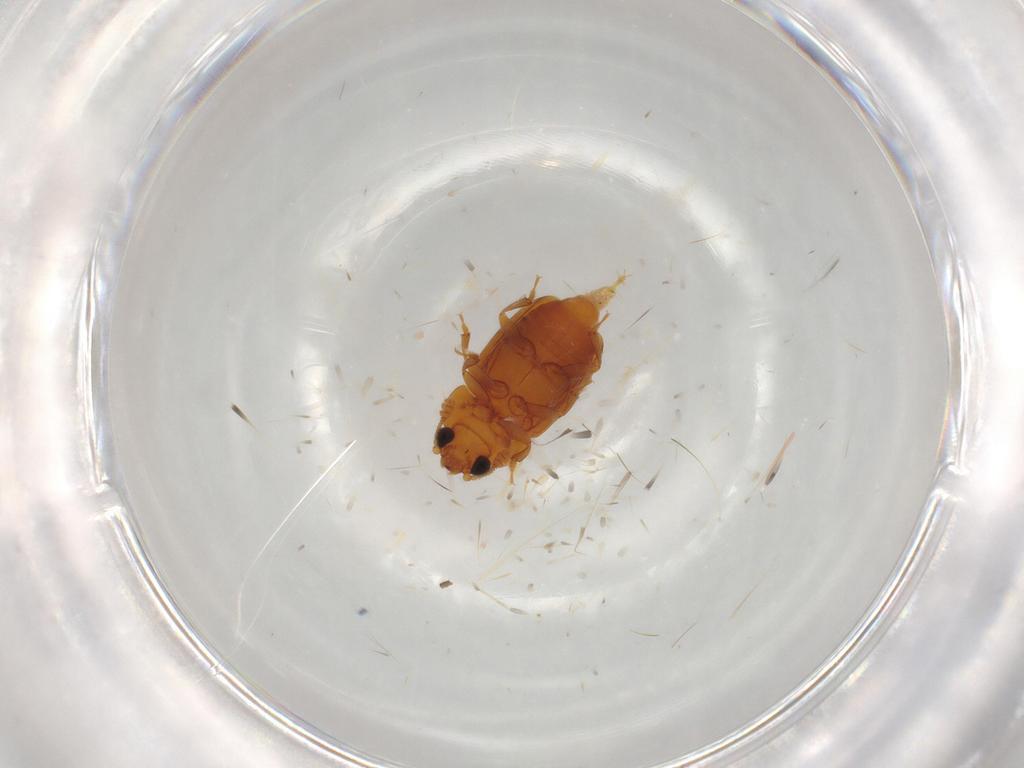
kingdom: Animalia
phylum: Arthropoda
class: Insecta
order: Coleoptera
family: Nitidulidae
